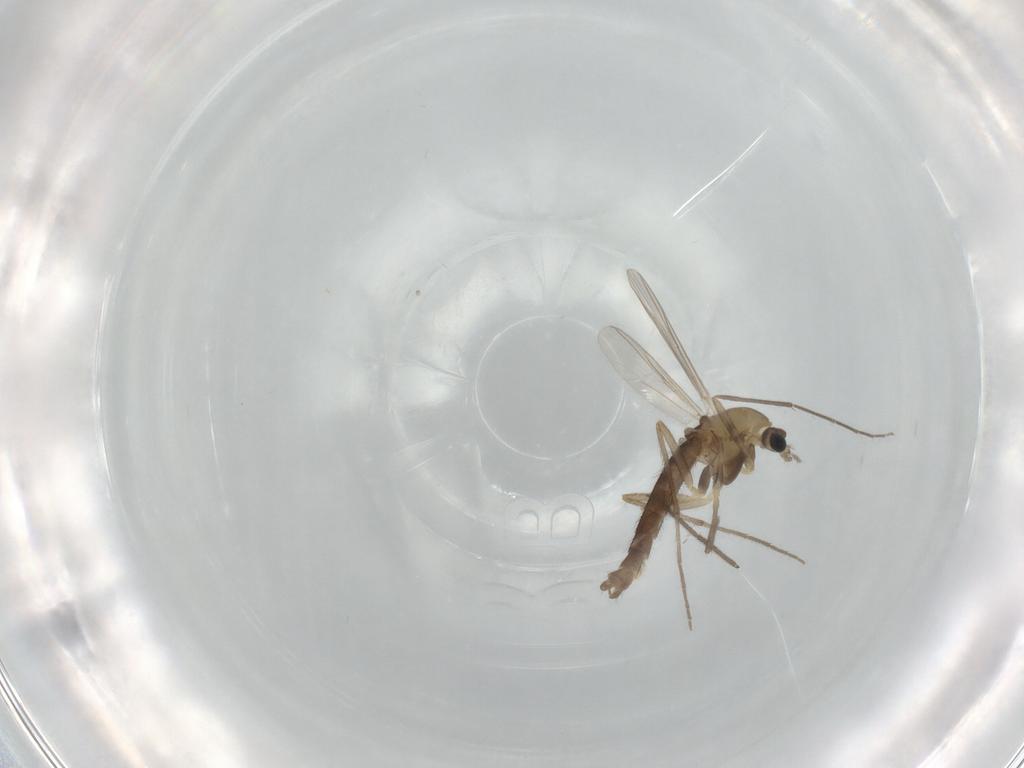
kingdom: Animalia
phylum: Arthropoda
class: Insecta
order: Diptera
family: Chironomidae
